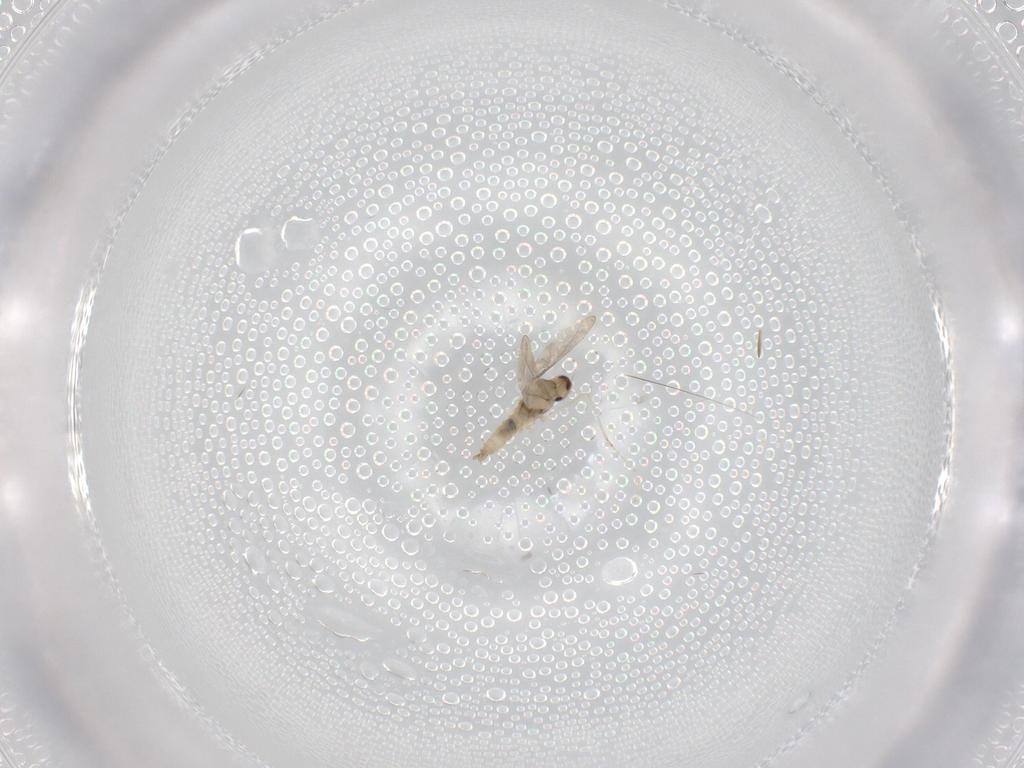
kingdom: Animalia
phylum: Arthropoda
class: Insecta
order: Diptera
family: Cecidomyiidae
